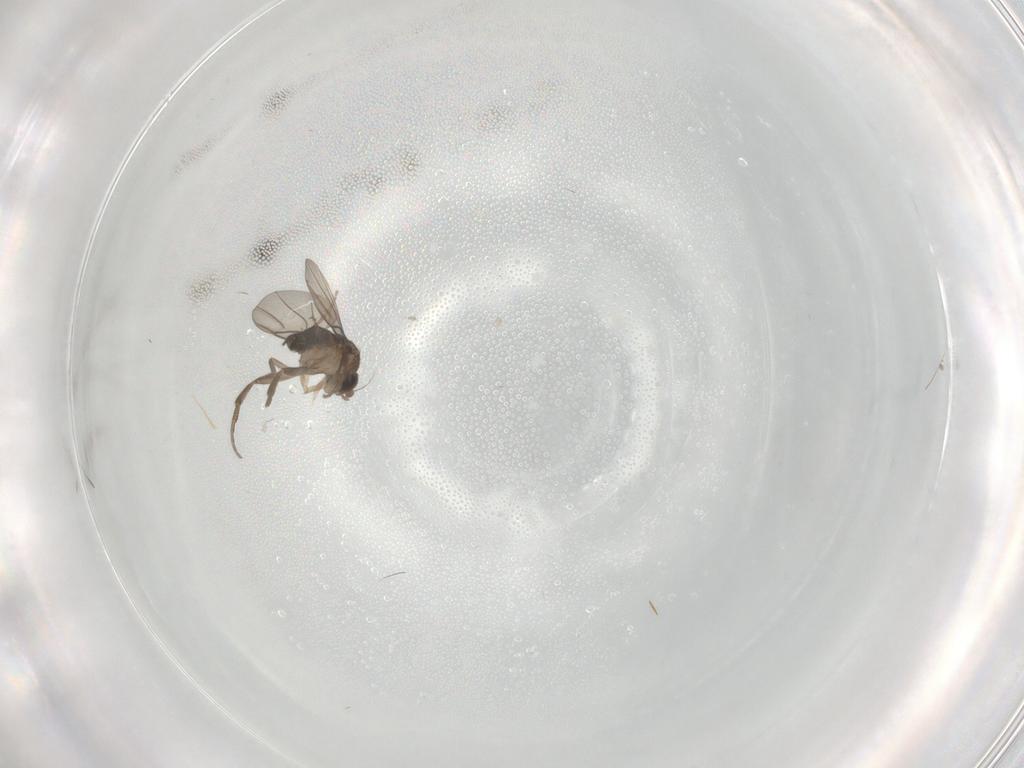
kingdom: Animalia
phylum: Arthropoda
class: Insecta
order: Diptera
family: Phoridae
